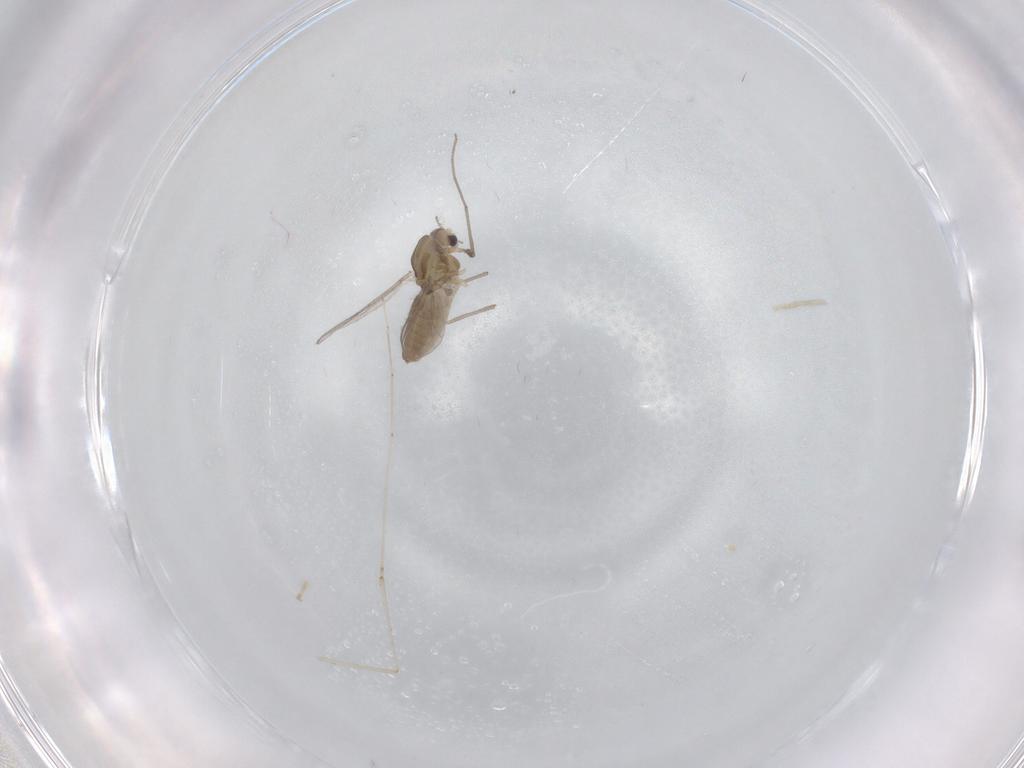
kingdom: Animalia
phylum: Arthropoda
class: Insecta
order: Diptera
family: Chironomidae
